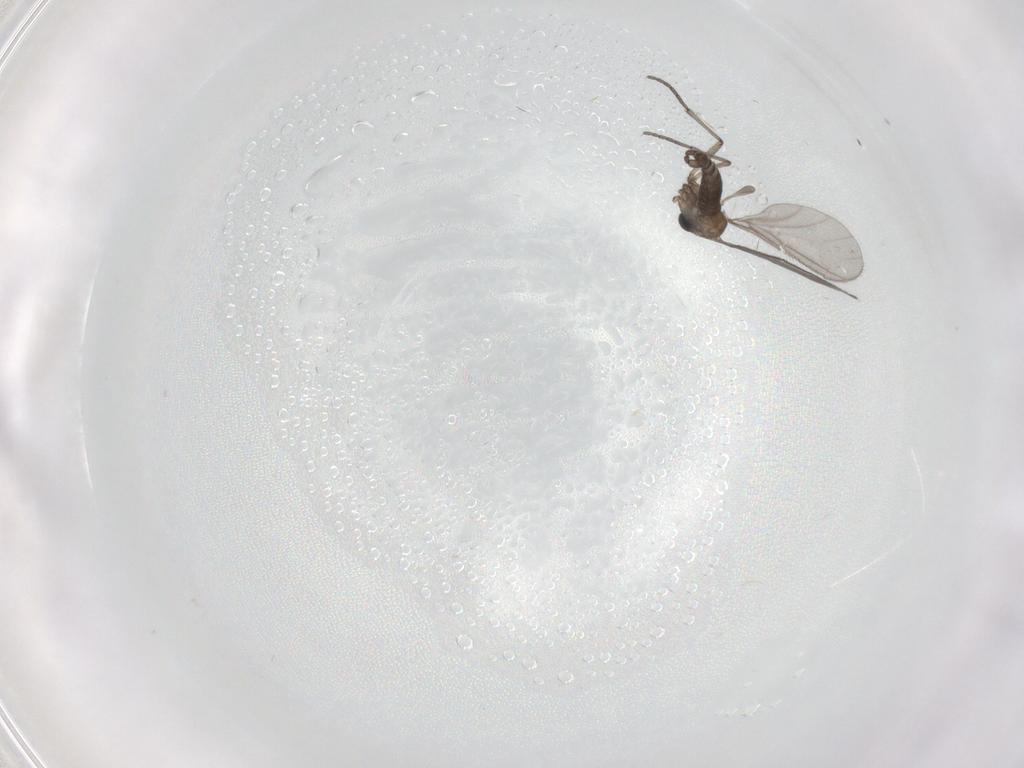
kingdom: Animalia
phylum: Arthropoda
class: Insecta
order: Diptera
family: Sciaridae
